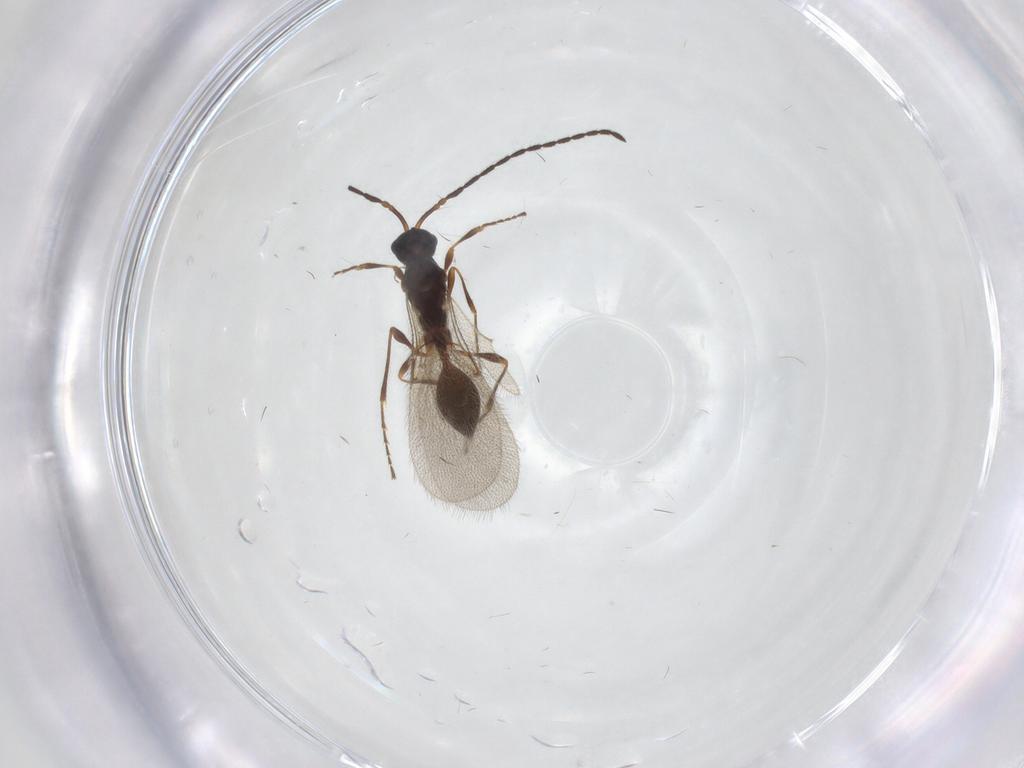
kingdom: Animalia
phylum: Arthropoda
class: Insecta
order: Hymenoptera
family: Diapriidae
